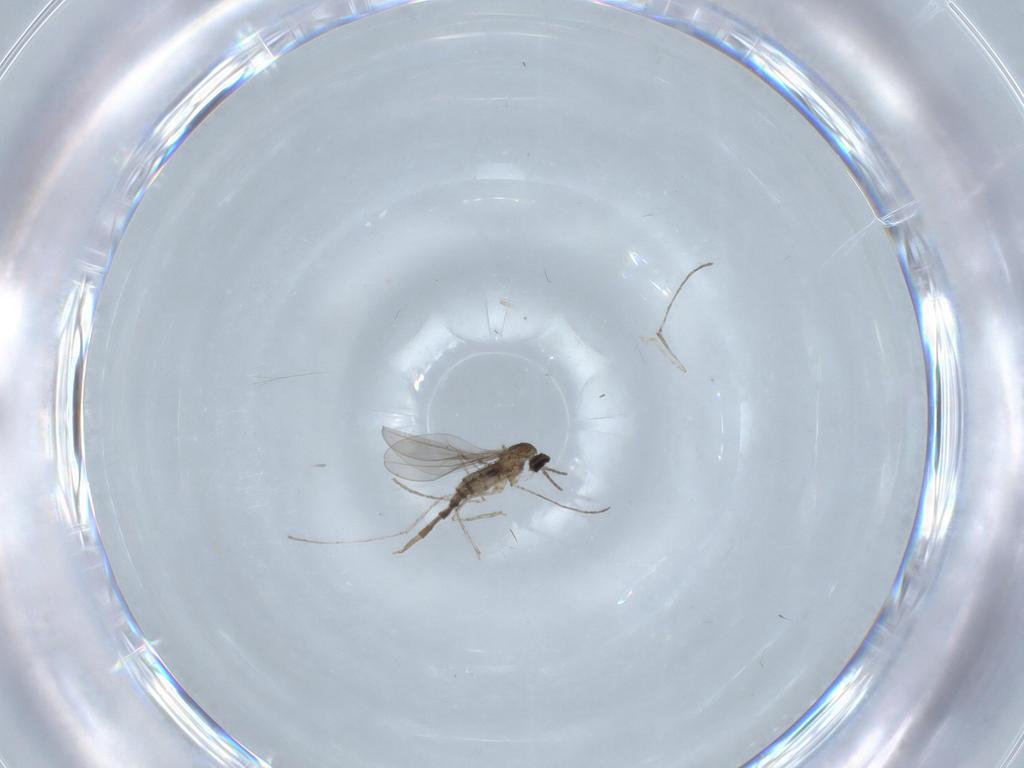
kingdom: Animalia
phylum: Arthropoda
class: Insecta
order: Diptera
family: Cecidomyiidae
